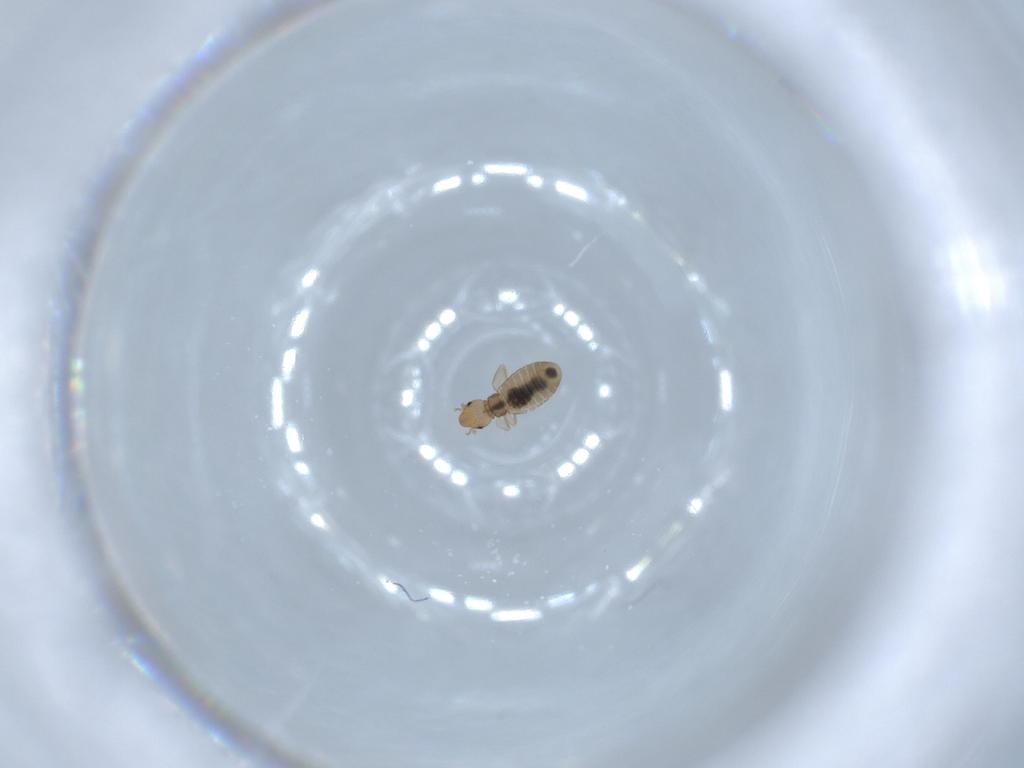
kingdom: Animalia
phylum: Arthropoda
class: Insecta
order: Psocodea
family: Liposcelididae
